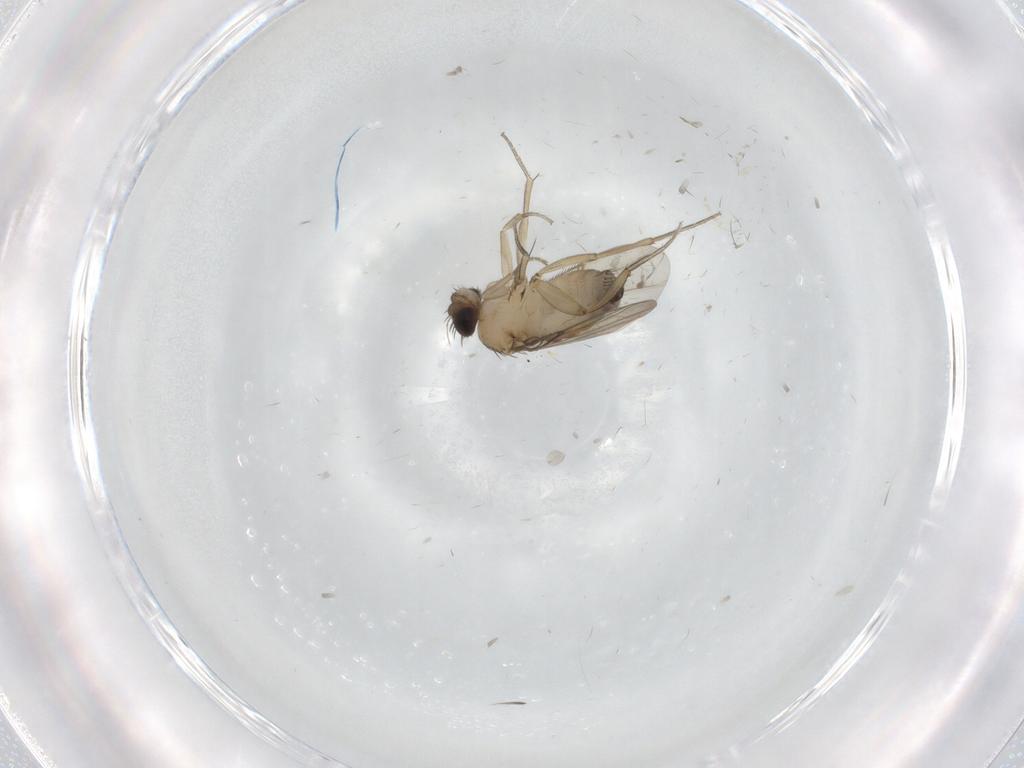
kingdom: Animalia
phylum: Arthropoda
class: Insecta
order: Diptera
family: Phoridae
